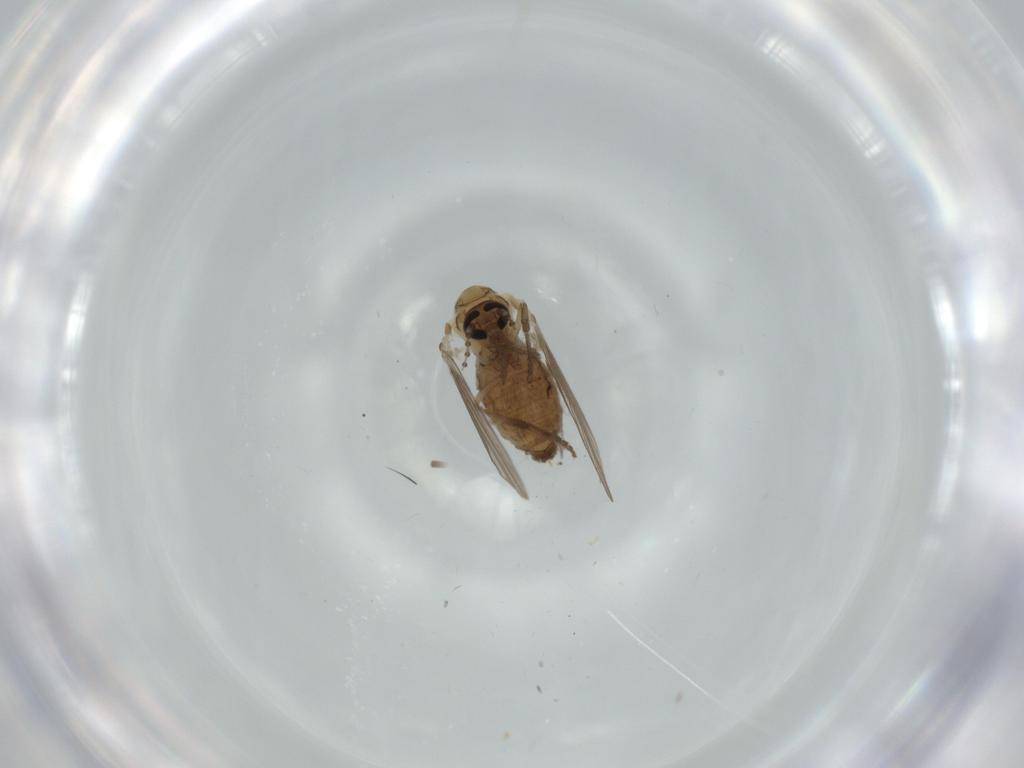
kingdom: Animalia
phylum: Arthropoda
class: Insecta
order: Diptera
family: Psychodidae
